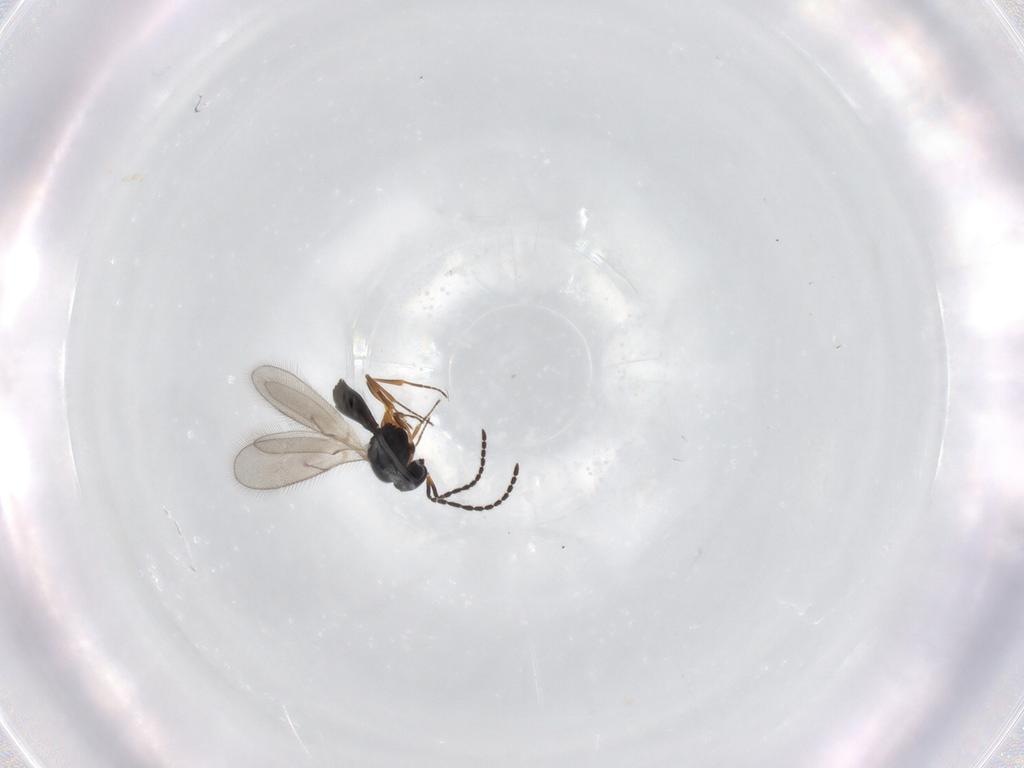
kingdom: Animalia
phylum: Arthropoda
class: Insecta
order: Hymenoptera
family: Scelionidae
